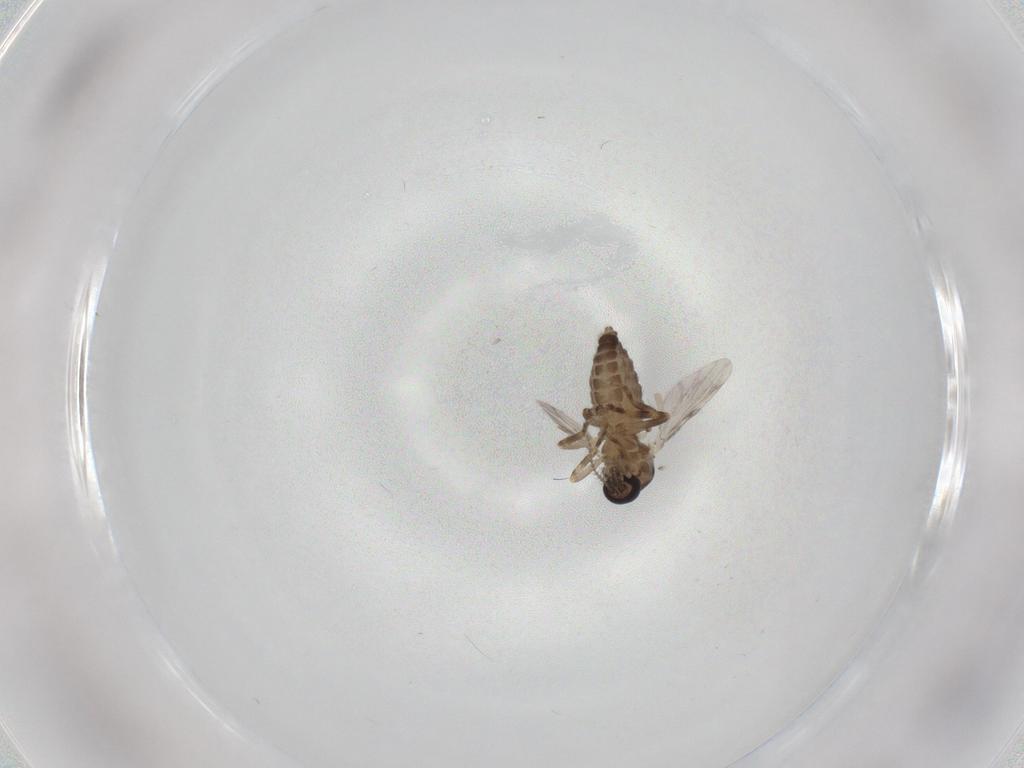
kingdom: Animalia
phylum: Arthropoda
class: Insecta
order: Diptera
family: Ceratopogonidae
